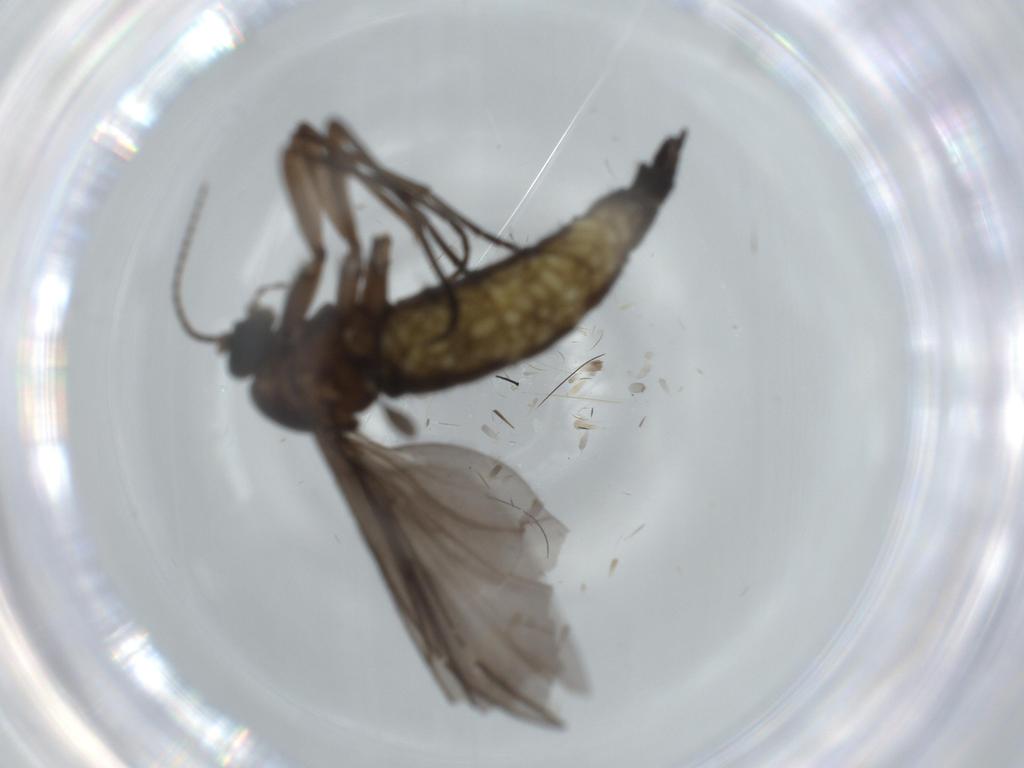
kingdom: Animalia
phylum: Arthropoda
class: Insecta
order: Diptera
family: Sciaridae
